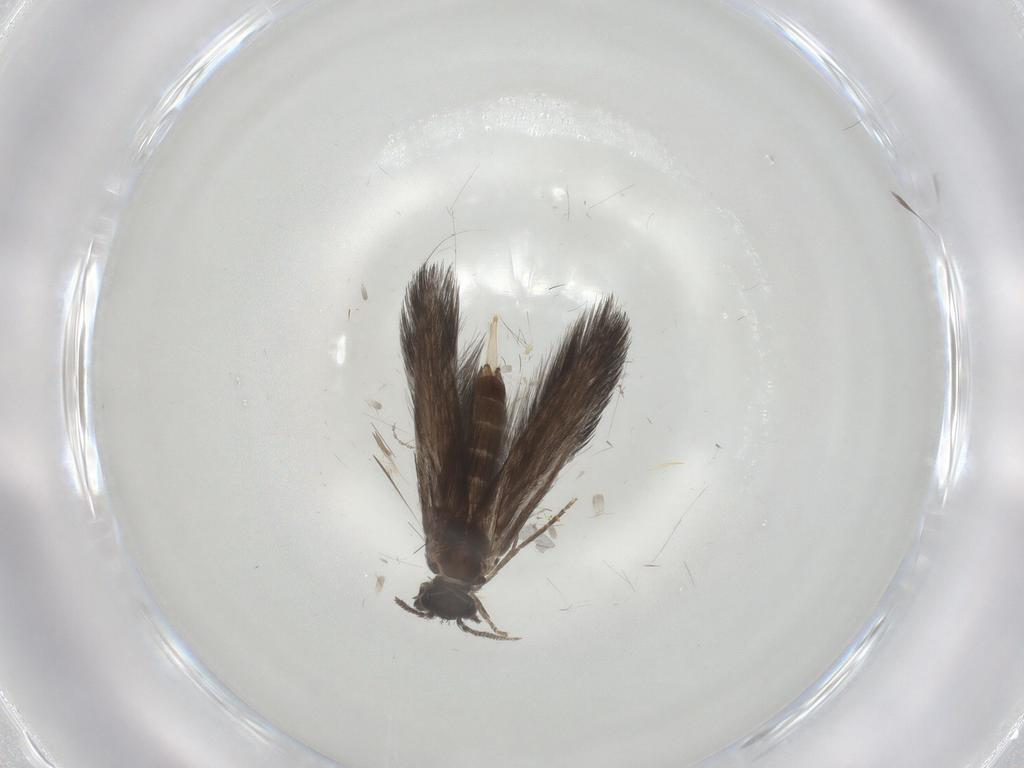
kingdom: Animalia
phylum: Arthropoda
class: Insecta
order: Trichoptera
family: Hydroptilidae
